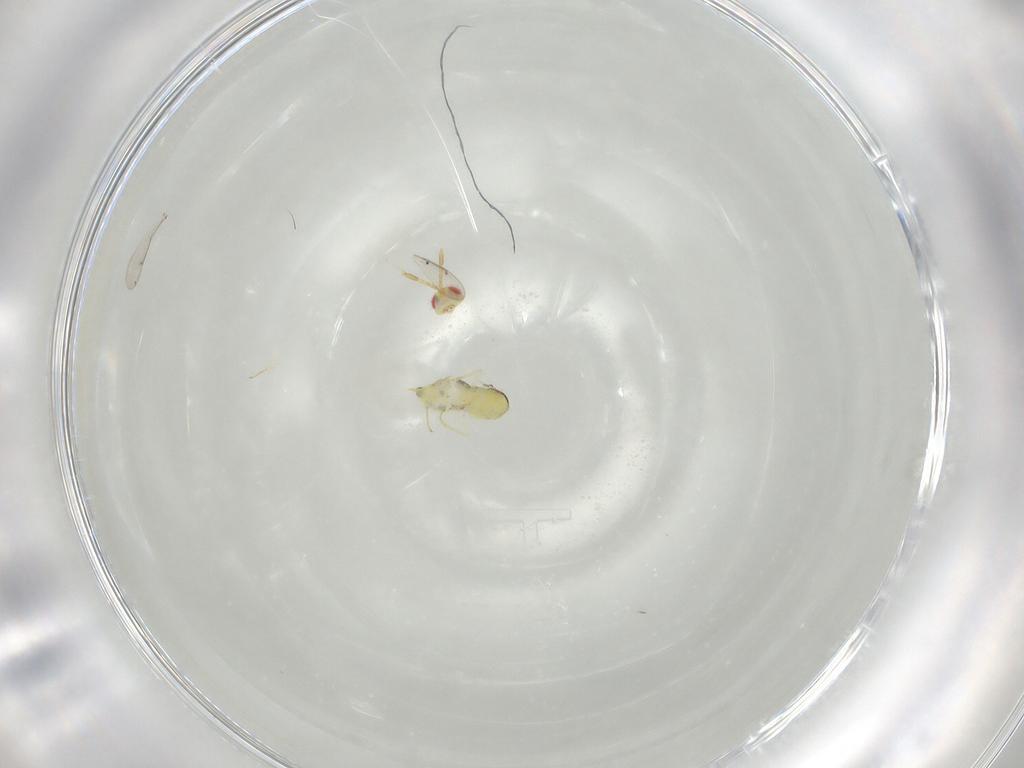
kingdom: Animalia
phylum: Arthropoda
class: Insecta
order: Hymenoptera
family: Aphelinidae
